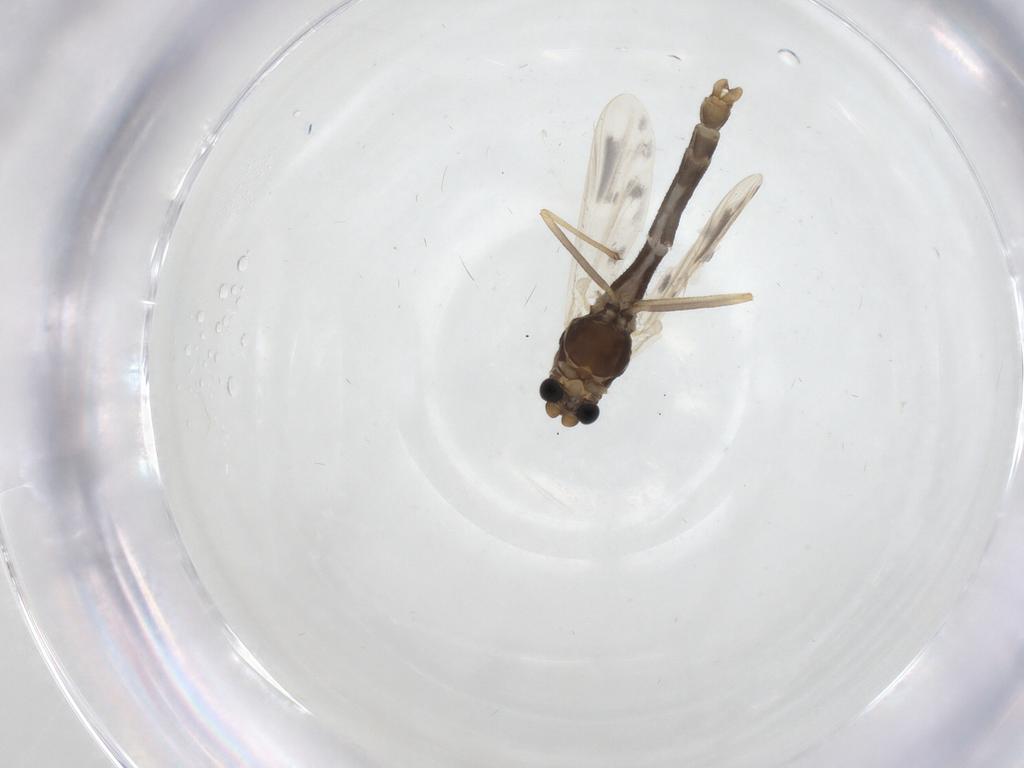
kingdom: Animalia
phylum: Arthropoda
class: Insecta
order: Diptera
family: Chironomidae
